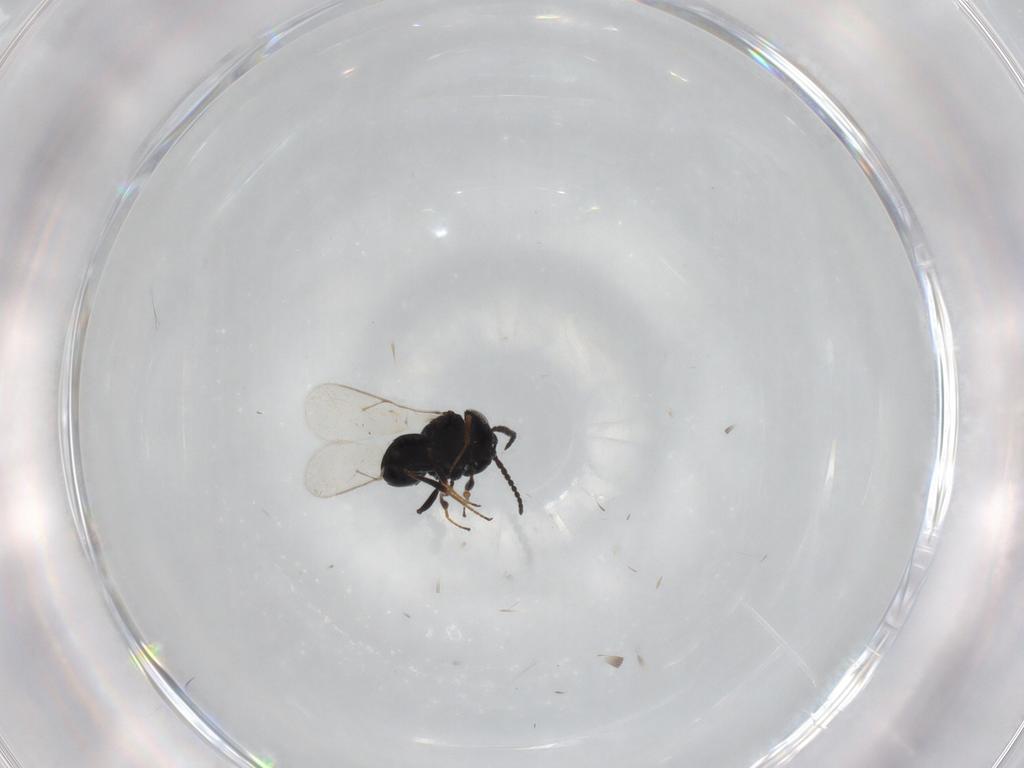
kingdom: Animalia
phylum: Arthropoda
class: Insecta
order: Hymenoptera
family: Scelionidae
